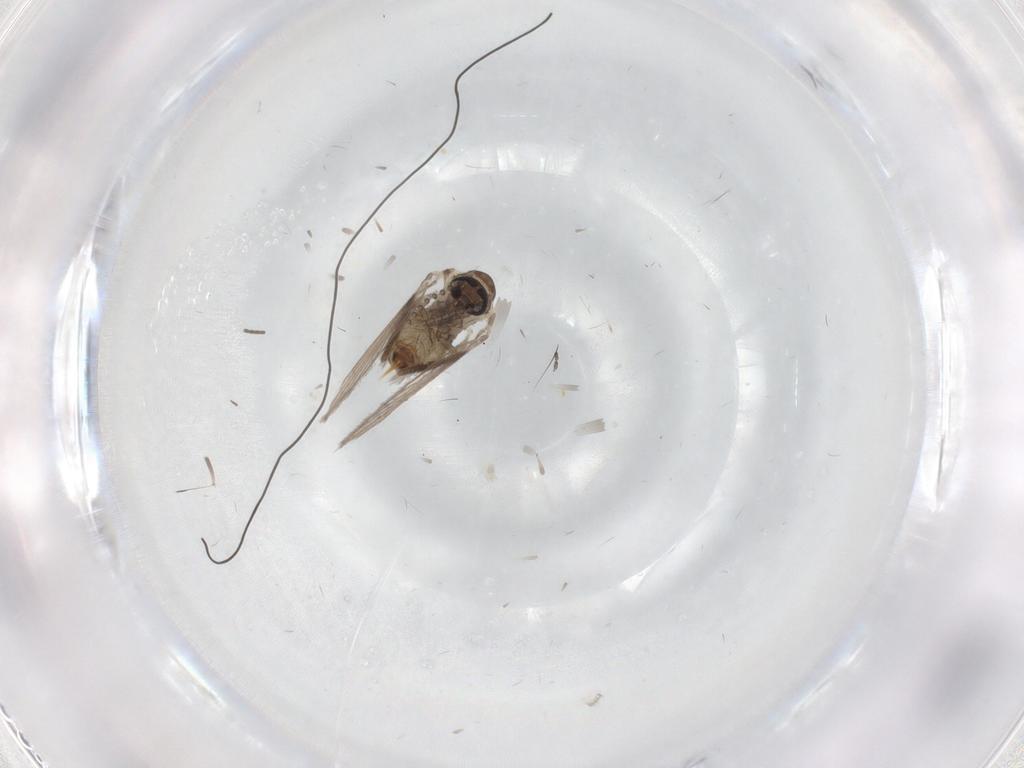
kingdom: Animalia
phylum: Arthropoda
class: Insecta
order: Diptera
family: Psychodidae
